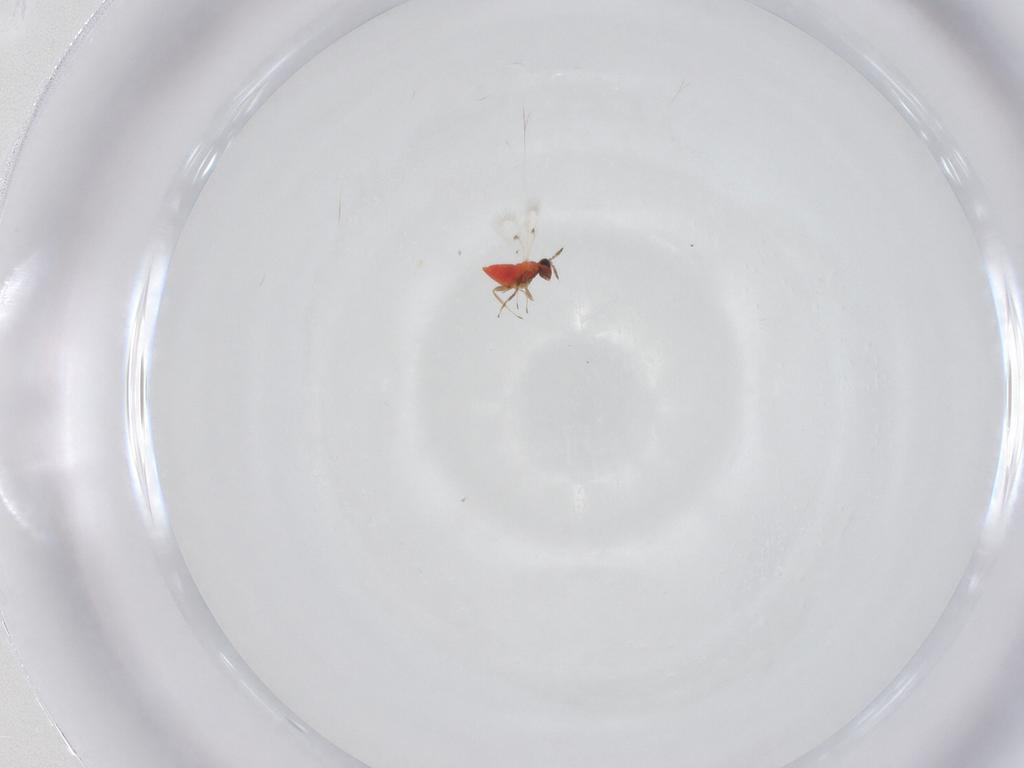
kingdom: Animalia
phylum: Arthropoda
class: Insecta
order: Hymenoptera
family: Trichogrammatidae
